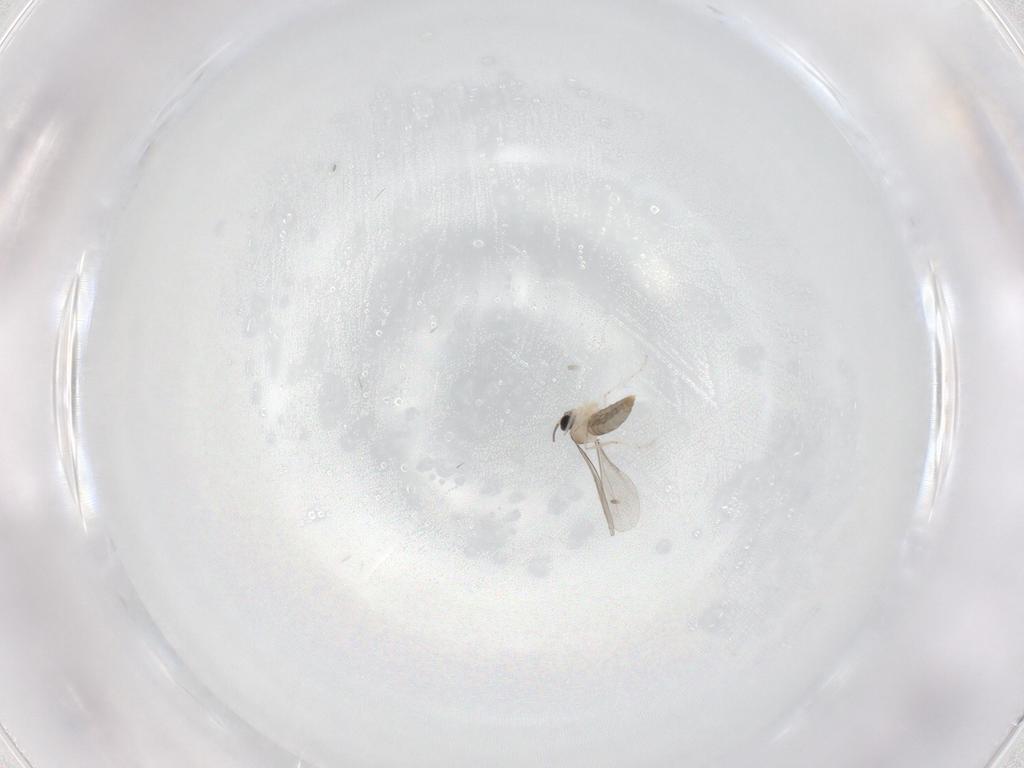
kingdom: Animalia
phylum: Arthropoda
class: Insecta
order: Diptera
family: Cecidomyiidae
